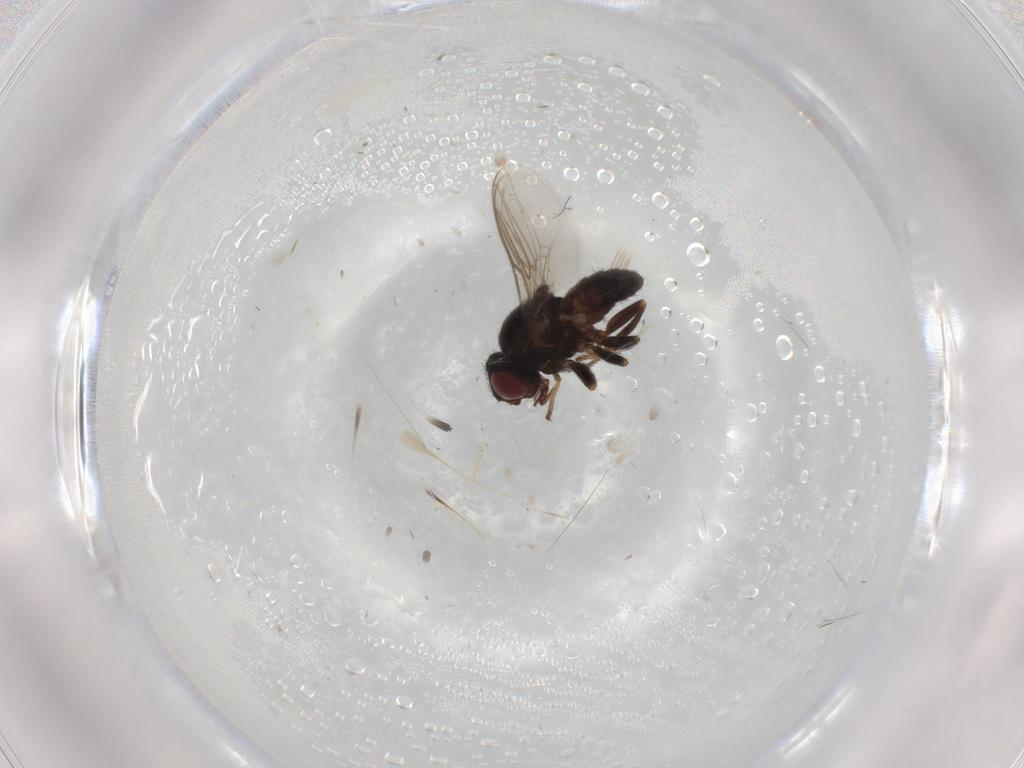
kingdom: Animalia
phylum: Arthropoda
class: Insecta
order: Diptera
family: Chloropidae
